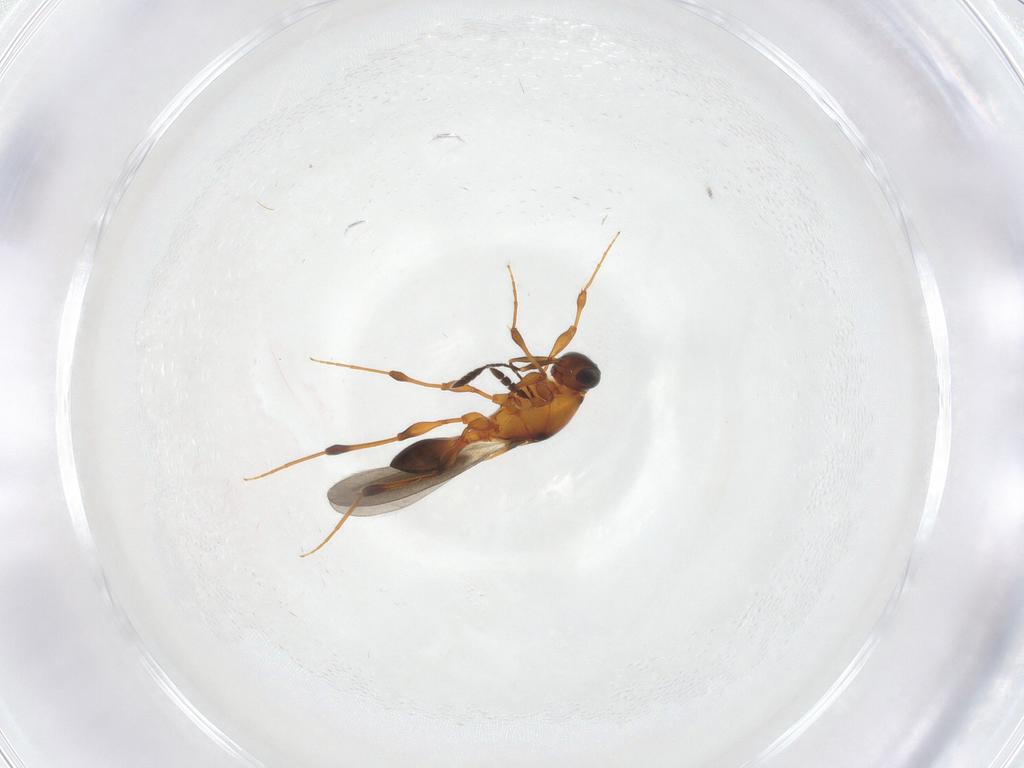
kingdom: Animalia
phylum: Arthropoda
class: Insecta
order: Hymenoptera
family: Platygastridae
